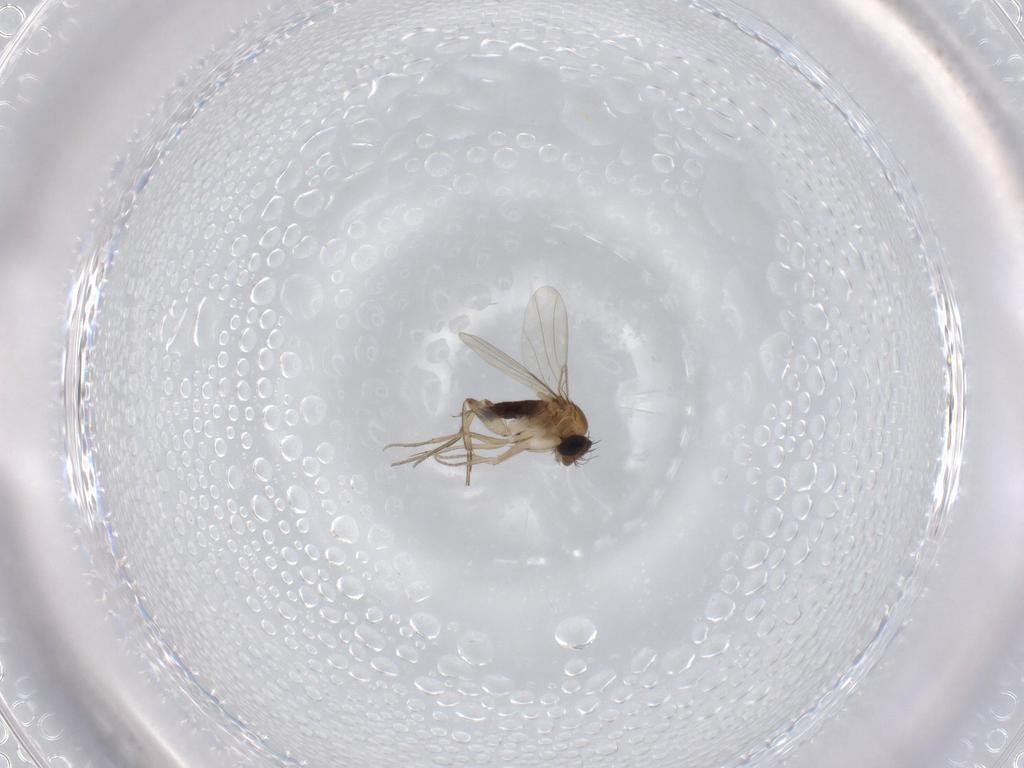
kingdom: Animalia
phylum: Arthropoda
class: Insecta
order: Diptera
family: Phoridae
